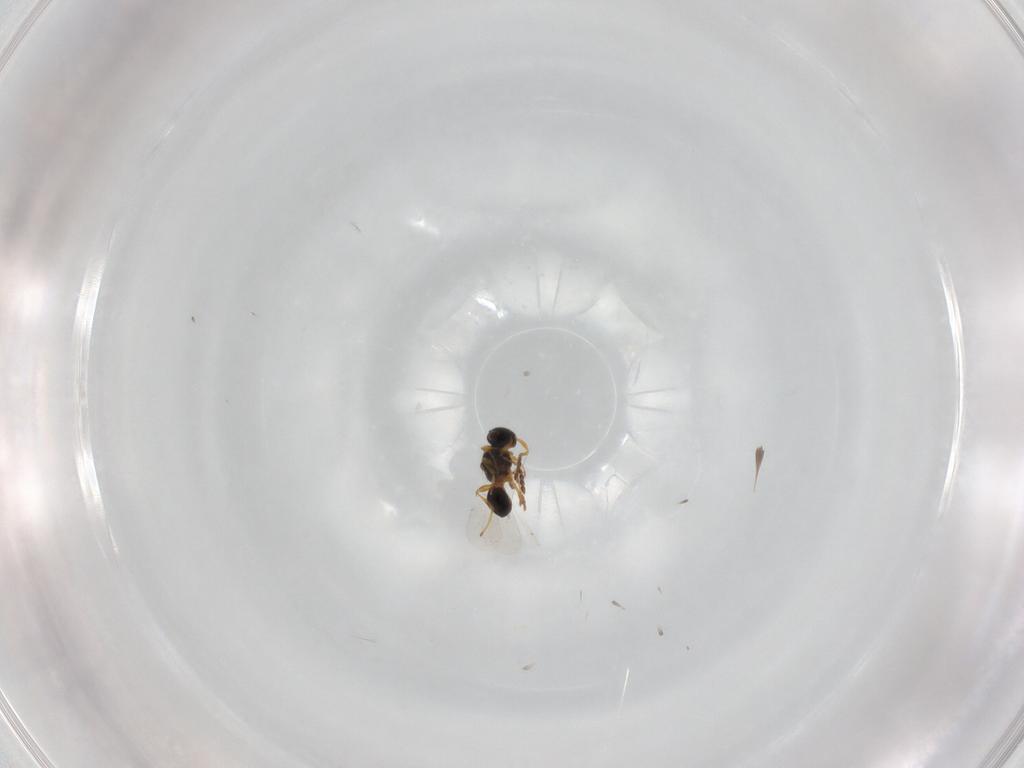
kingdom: Animalia
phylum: Arthropoda
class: Insecta
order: Hymenoptera
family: Platygastridae
